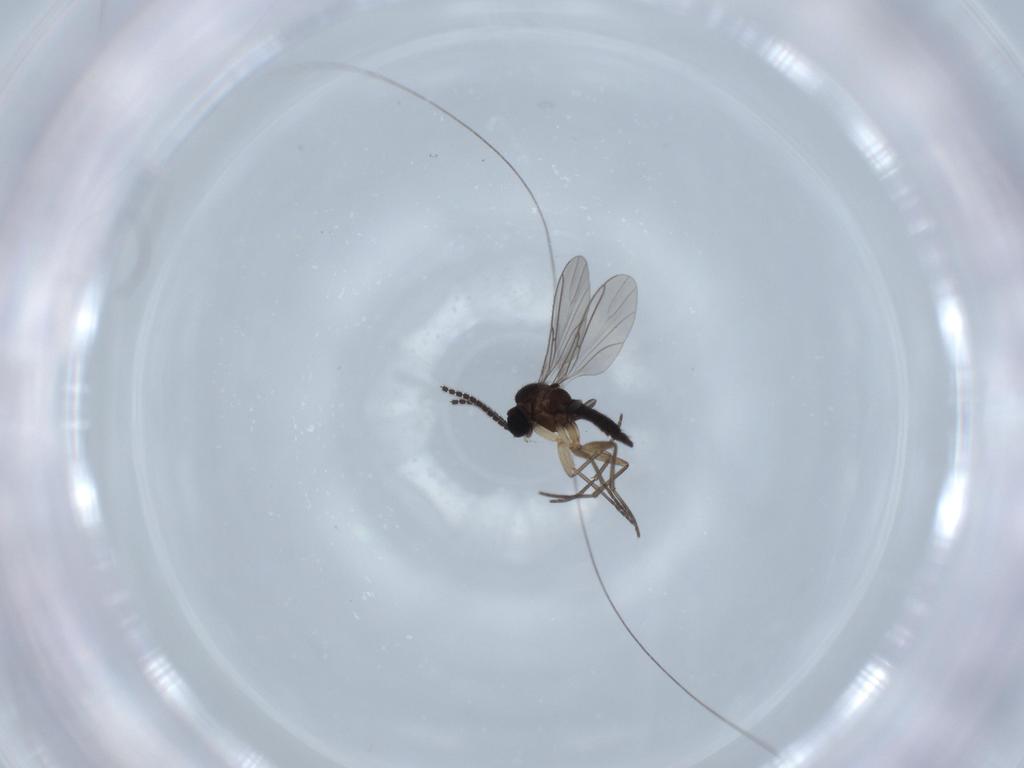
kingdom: Animalia
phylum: Arthropoda
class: Insecta
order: Diptera
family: Sciaridae
